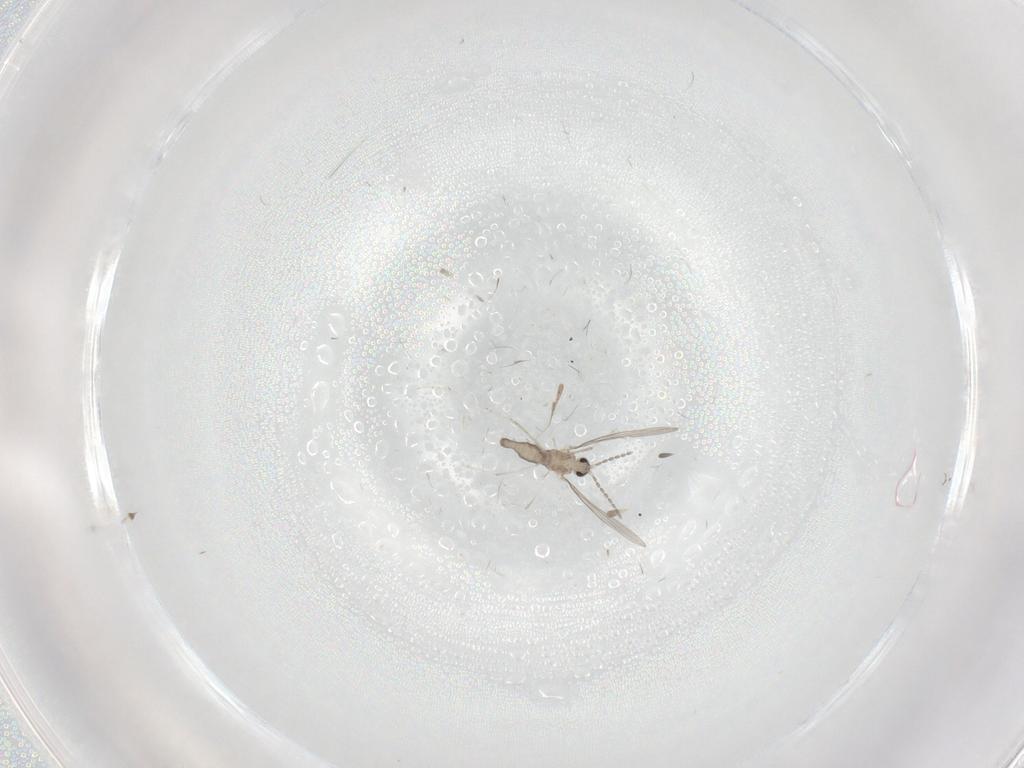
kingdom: Animalia
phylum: Arthropoda
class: Insecta
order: Diptera
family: Cecidomyiidae
